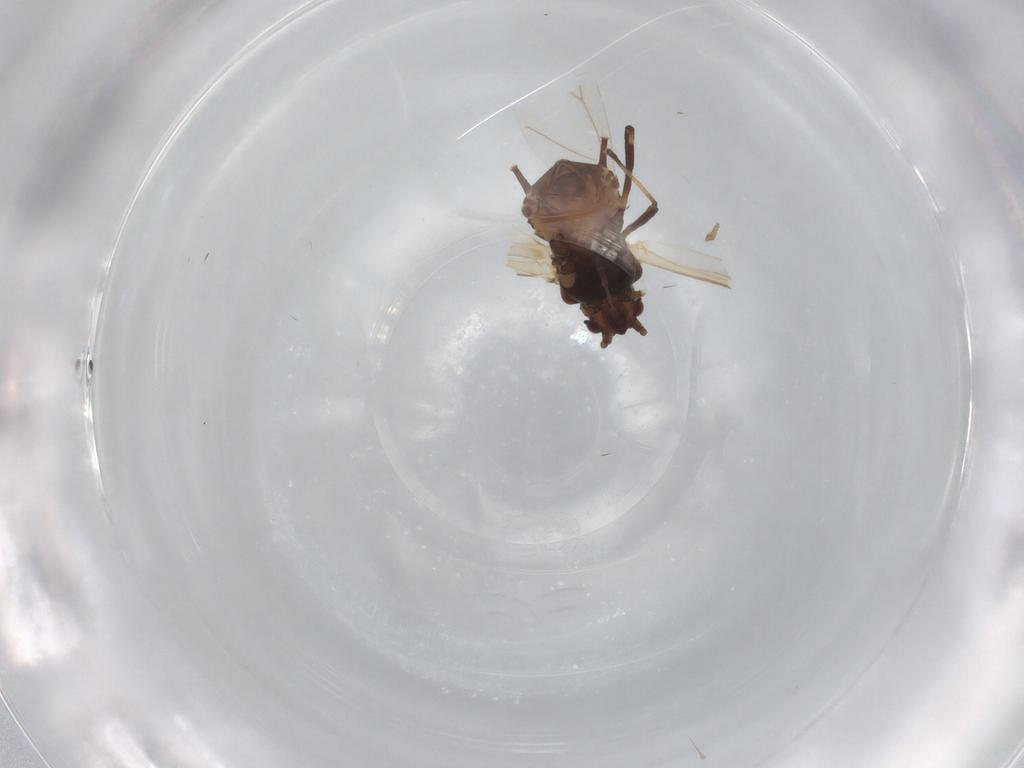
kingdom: Animalia
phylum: Arthropoda
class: Insecta
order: Hemiptera
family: Aphididae
